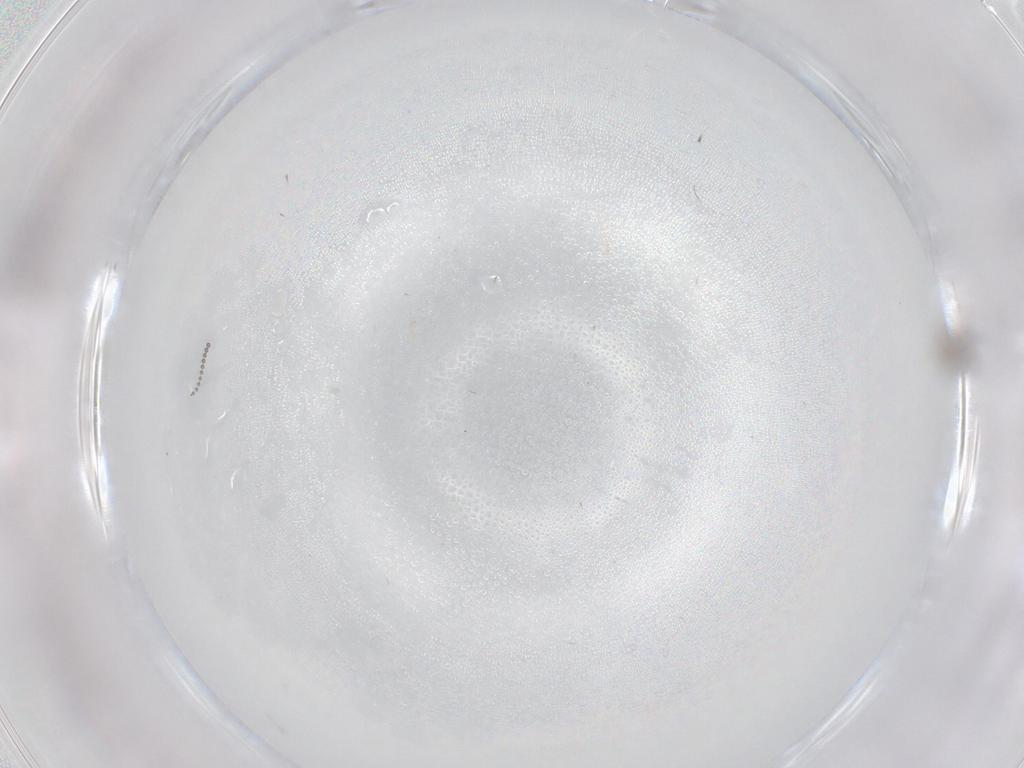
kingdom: Animalia
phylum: Arthropoda
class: Insecta
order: Diptera
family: Cecidomyiidae
